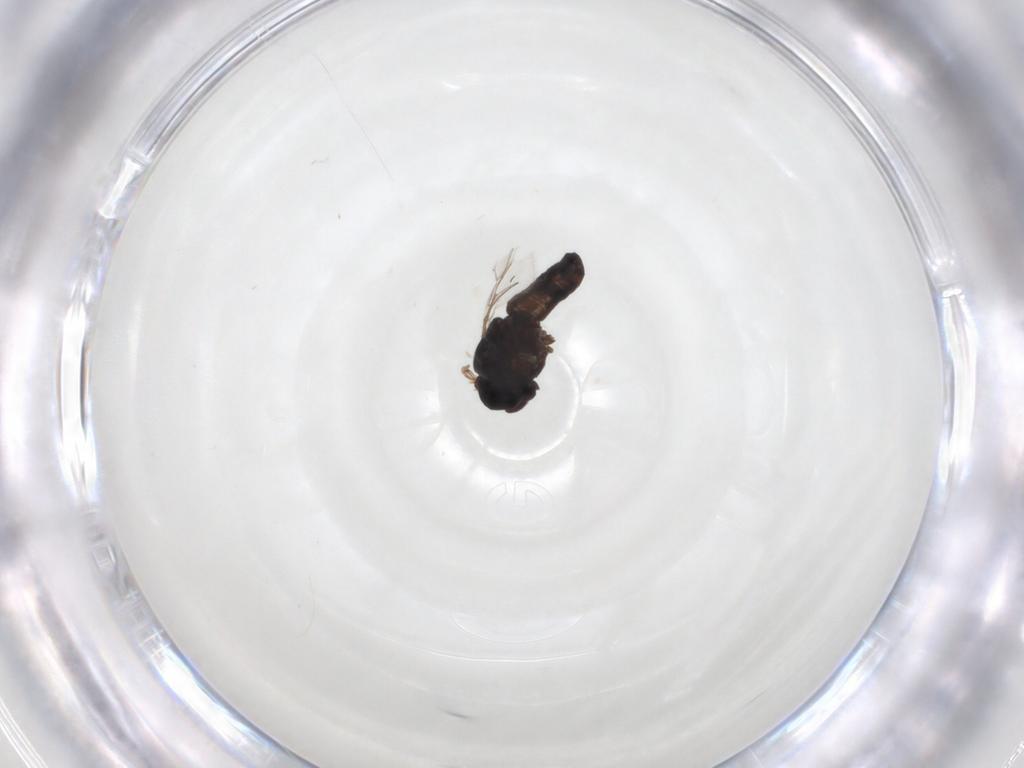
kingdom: Animalia
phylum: Arthropoda
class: Insecta
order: Diptera
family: Pipunculidae
